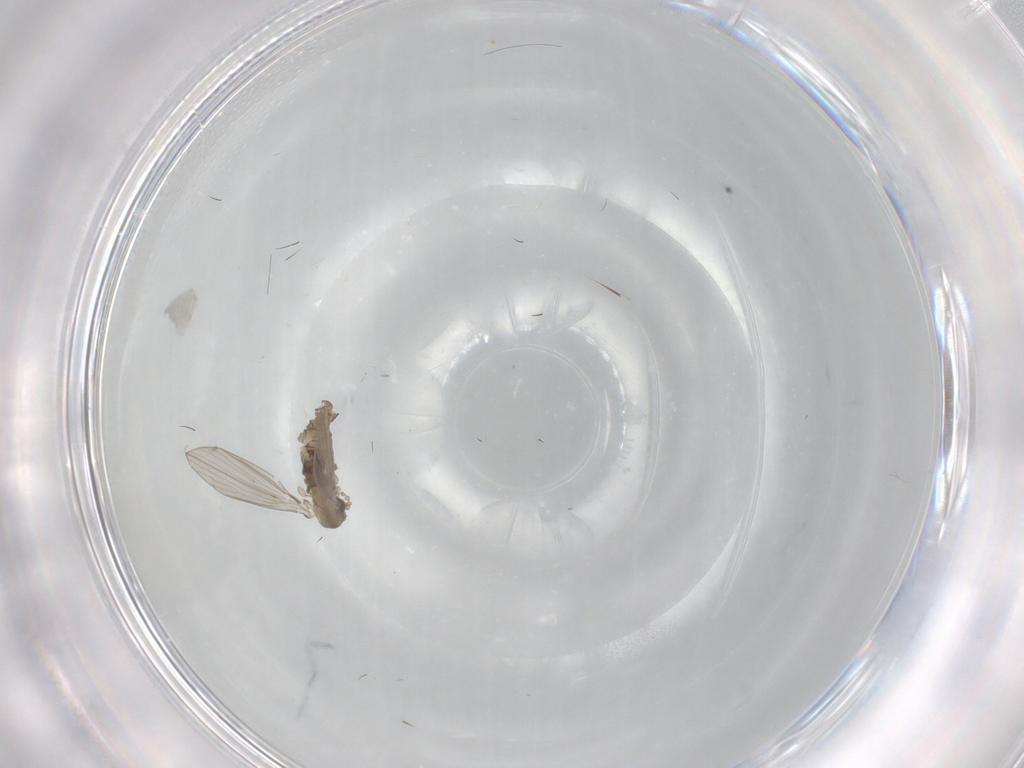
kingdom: Animalia
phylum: Arthropoda
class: Insecta
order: Diptera
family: Psychodidae
